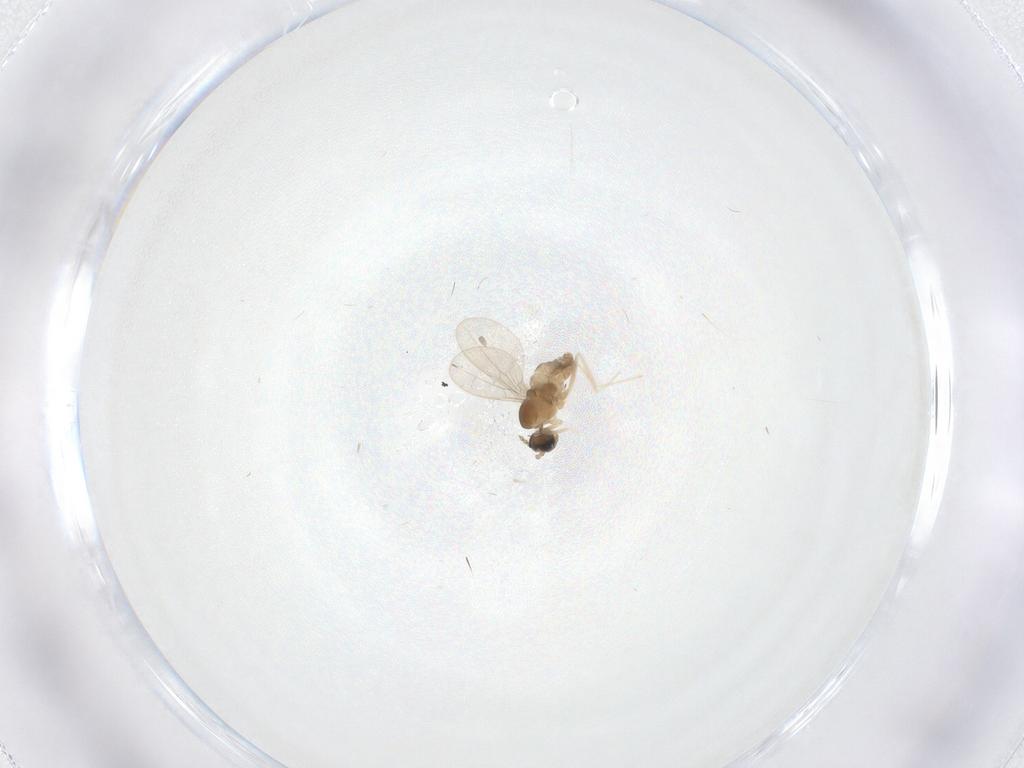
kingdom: Animalia
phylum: Arthropoda
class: Insecta
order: Diptera
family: Cecidomyiidae
